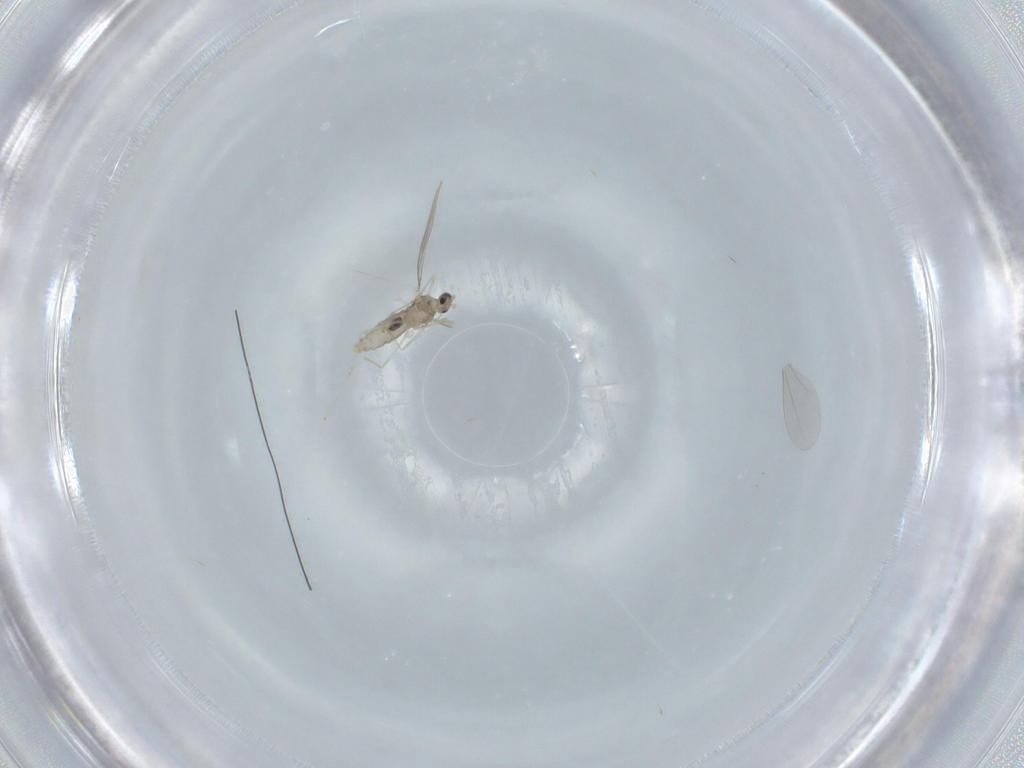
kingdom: Animalia
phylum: Arthropoda
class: Insecta
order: Diptera
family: Cecidomyiidae
